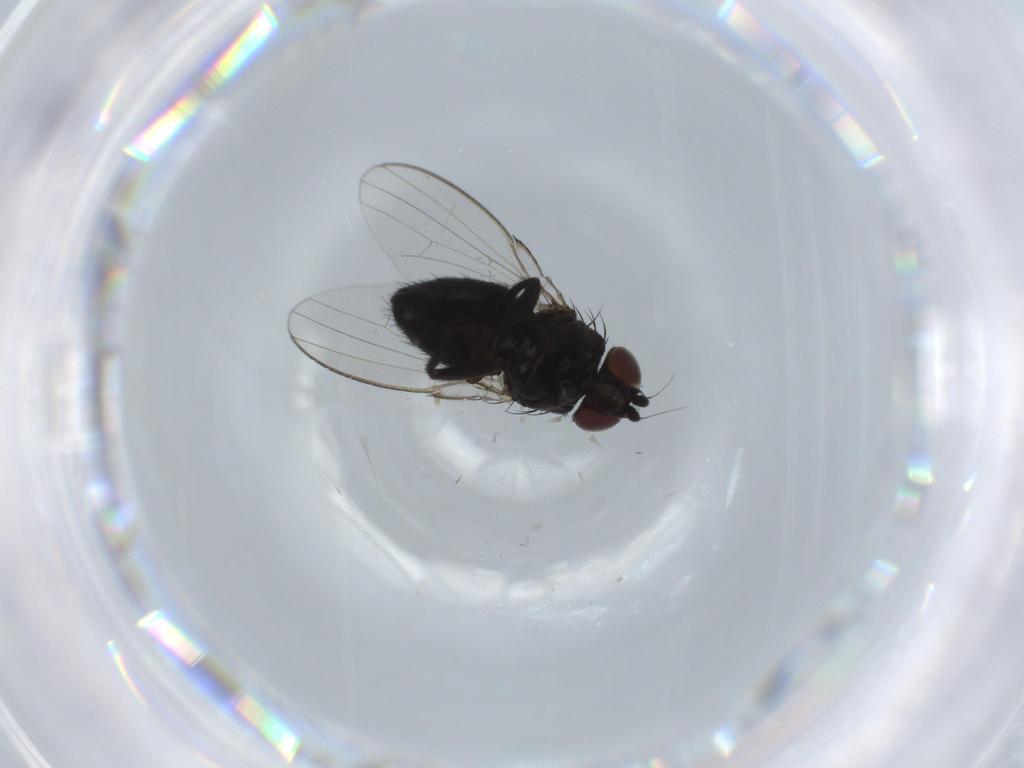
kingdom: Animalia
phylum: Arthropoda
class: Insecta
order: Diptera
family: Milichiidae
